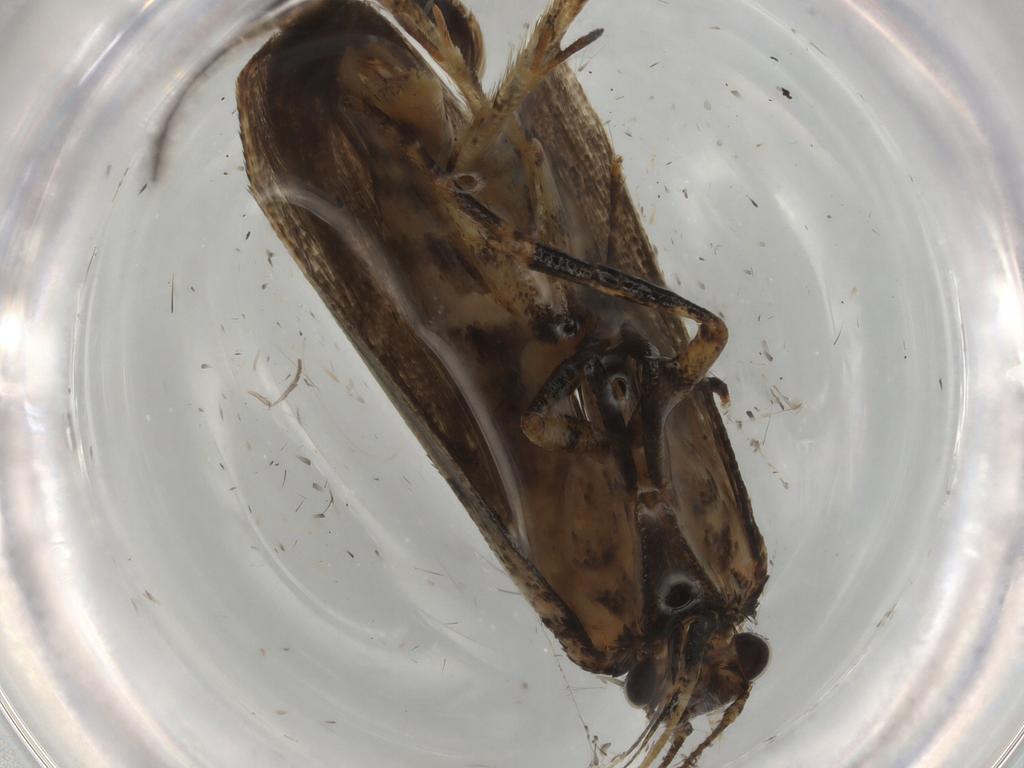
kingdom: Animalia
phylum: Arthropoda
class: Insecta
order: Lepidoptera
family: Gelechiidae
